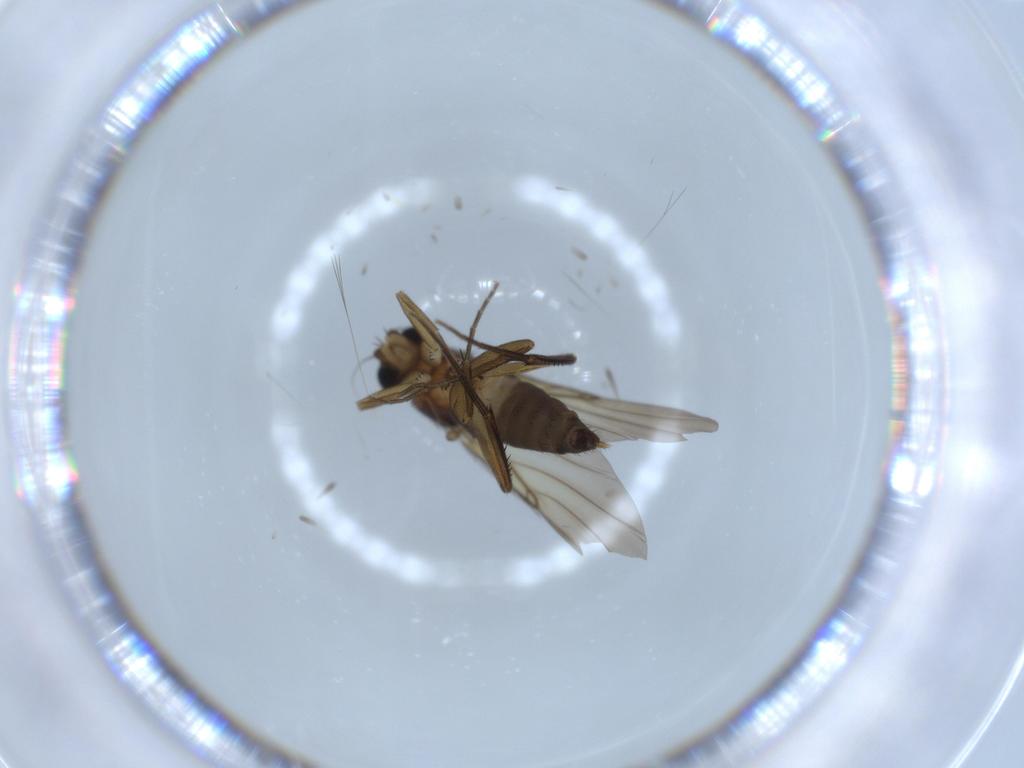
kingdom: Animalia
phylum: Arthropoda
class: Insecta
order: Diptera
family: Phoridae
